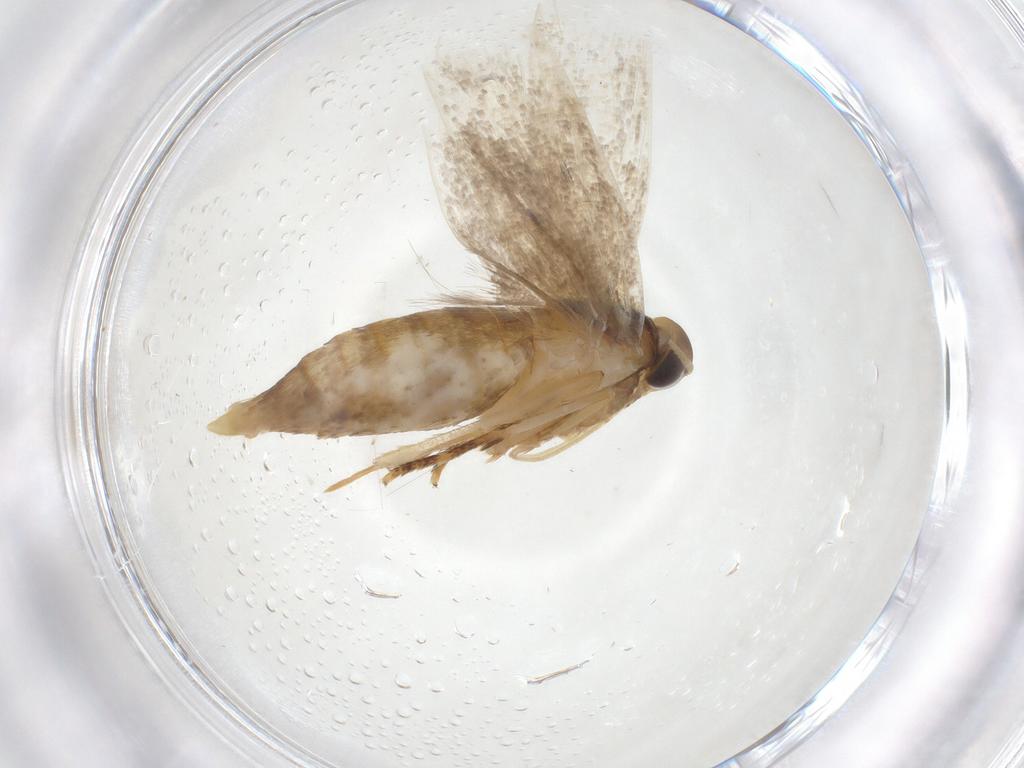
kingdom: Animalia
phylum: Arthropoda
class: Insecta
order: Lepidoptera
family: Oecophoridae
